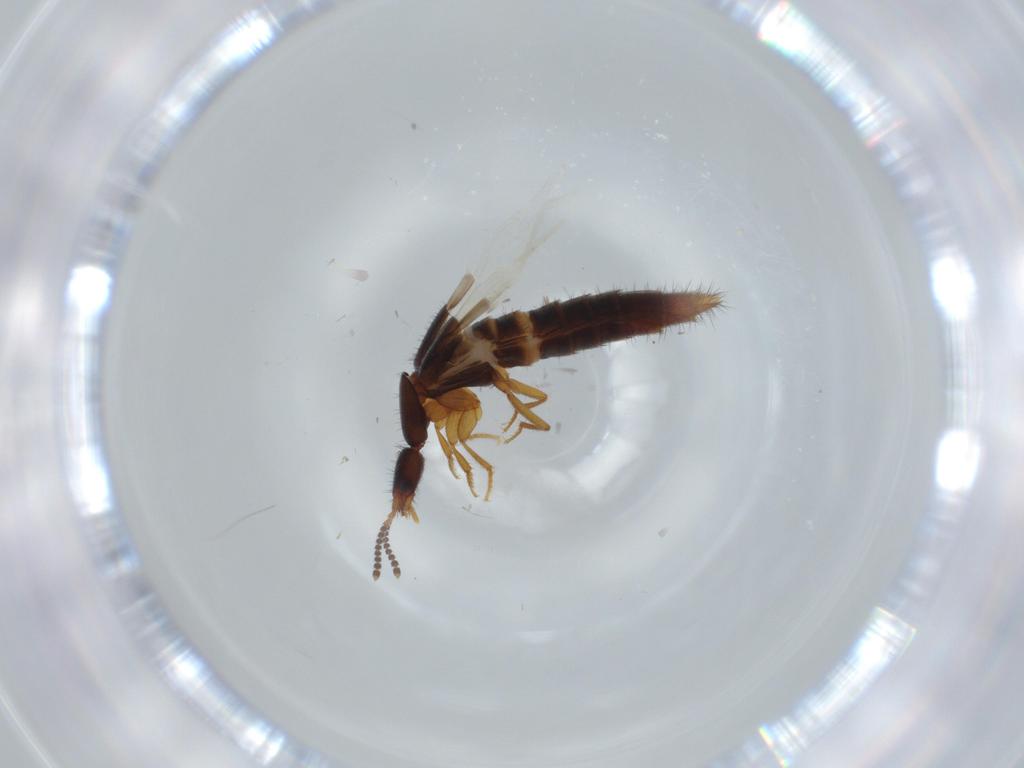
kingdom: Animalia
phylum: Arthropoda
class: Insecta
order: Coleoptera
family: Staphylinidae
